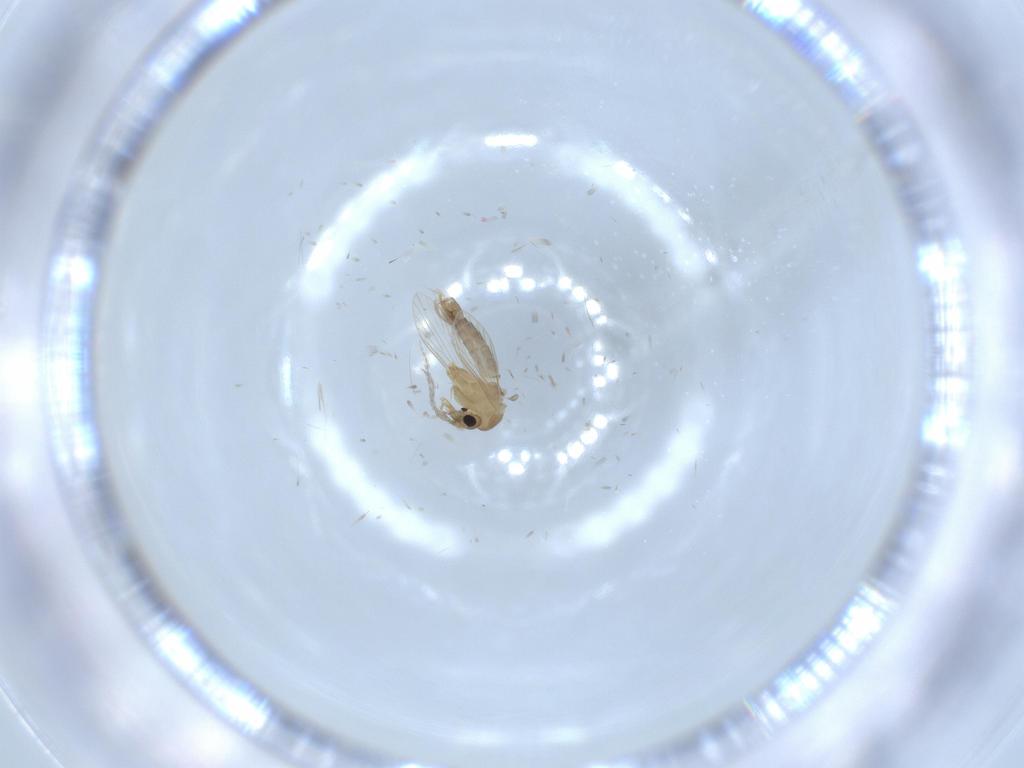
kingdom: Animalia
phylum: Arthropoda
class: Insecta
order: Diptera
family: Psychodidae
